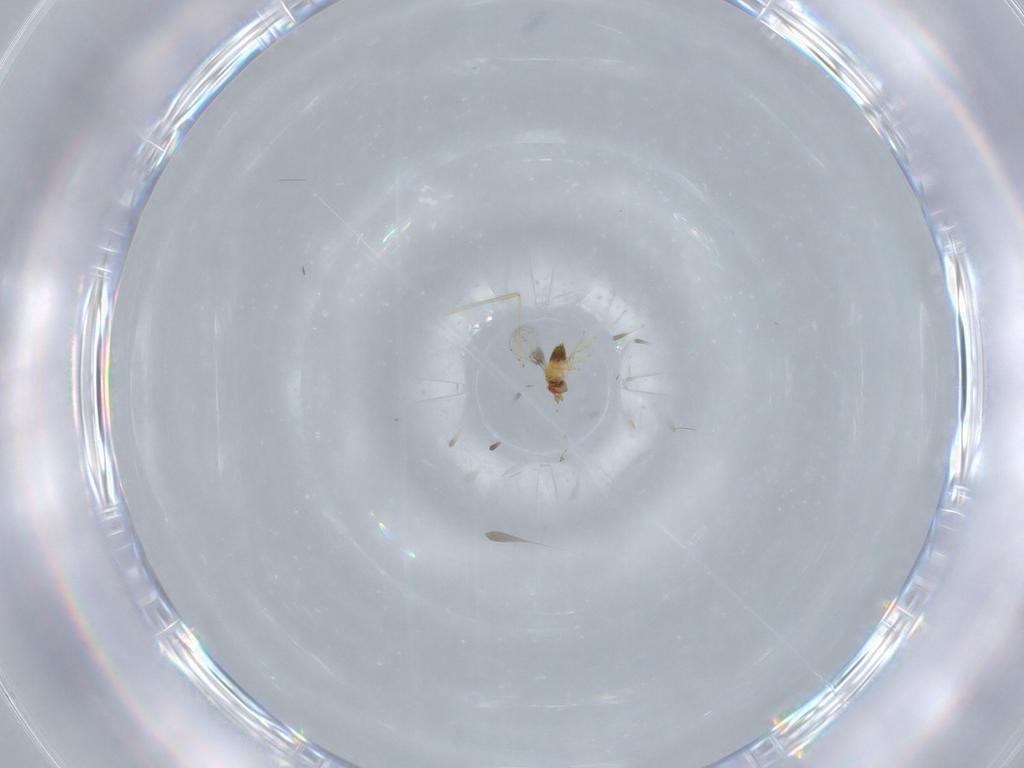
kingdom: Animalia
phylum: Arthropoda
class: Insecta
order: Hymenoptera
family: Trichogrammatidae
